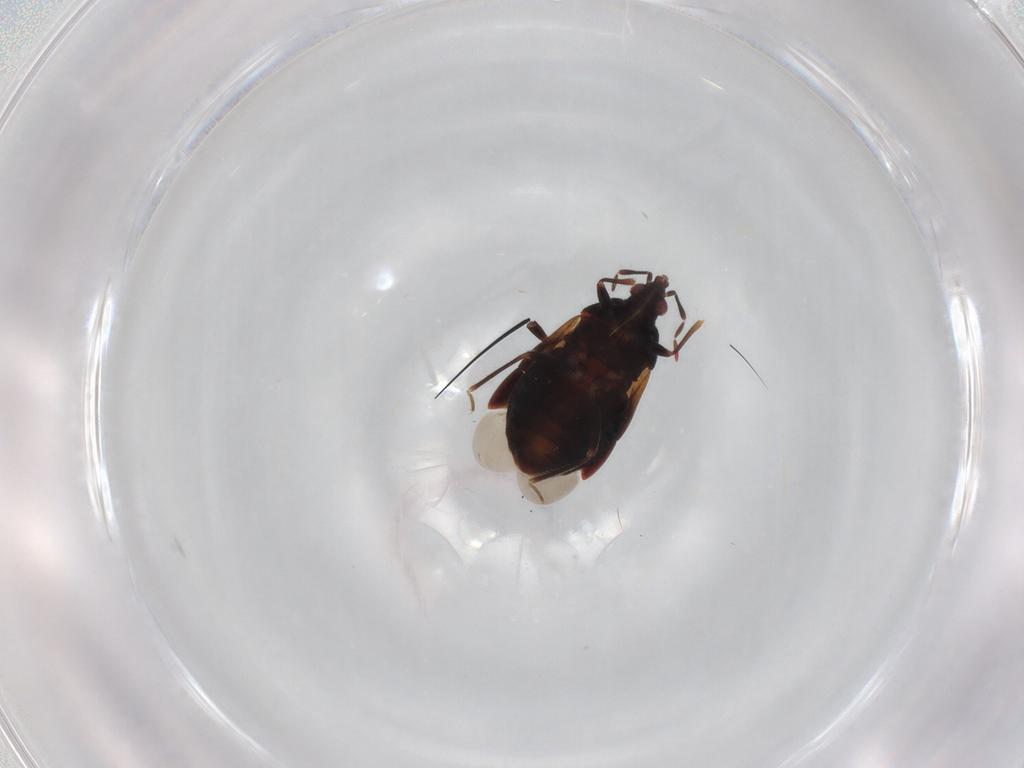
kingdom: Animalia
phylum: Arthropoda
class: Insecta
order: Hemiptera
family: Anthocoridae
